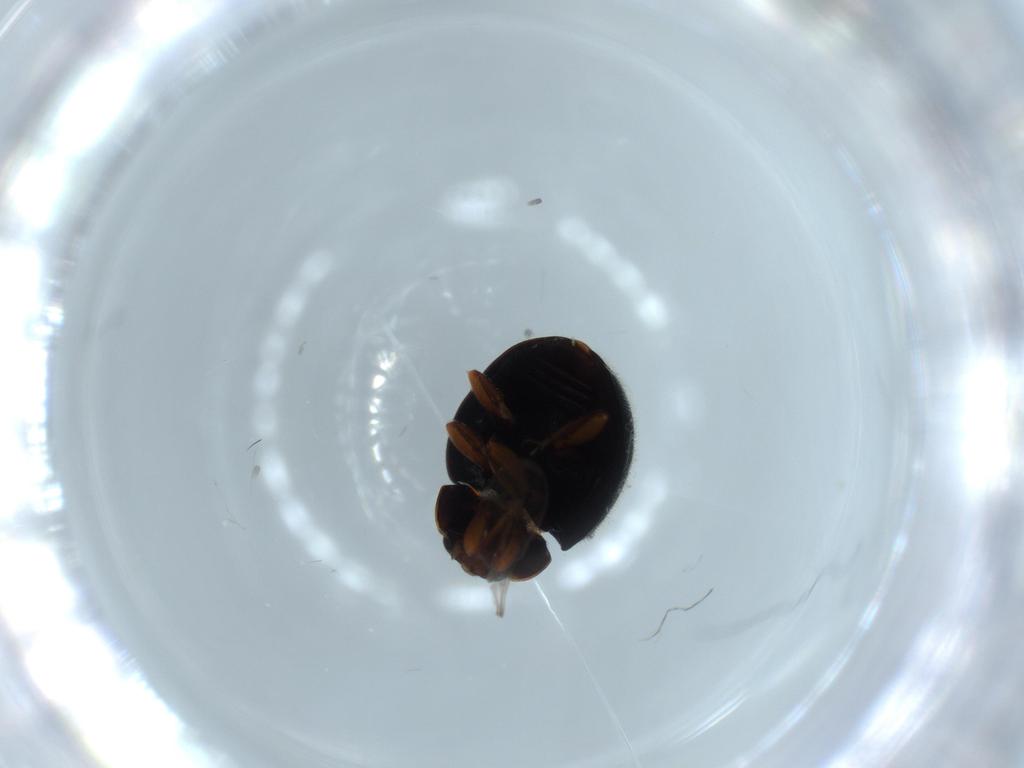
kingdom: Animalia
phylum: Arthropoda
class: Insecta
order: Coleoptera
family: Coccinellidae
